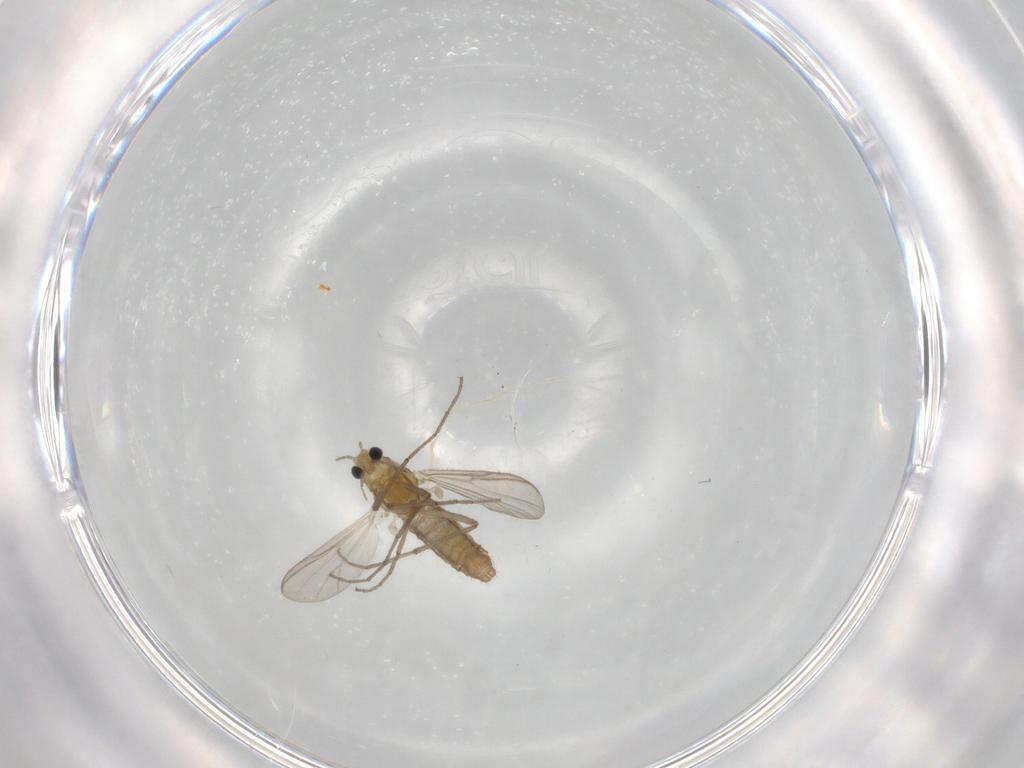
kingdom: Animalia
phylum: Arthropoda
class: Insecta
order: Diptera
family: Chironomidae
